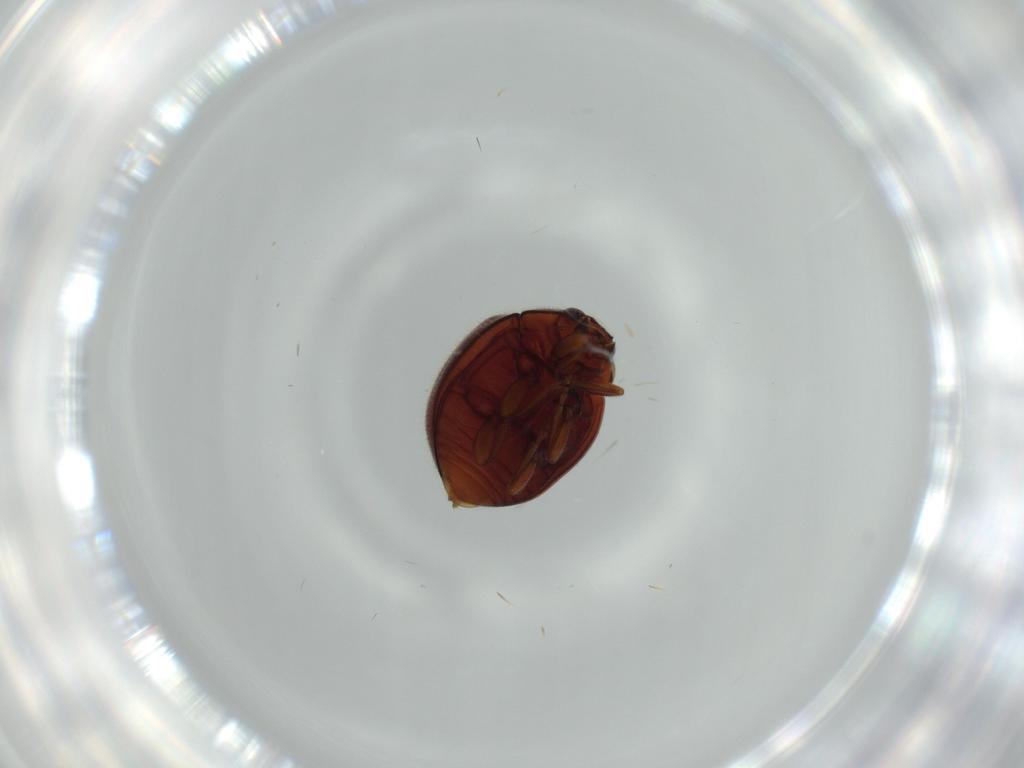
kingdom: Animalia
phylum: Arthropoda
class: Insecta
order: Coleoptera
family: Coccinellidae
